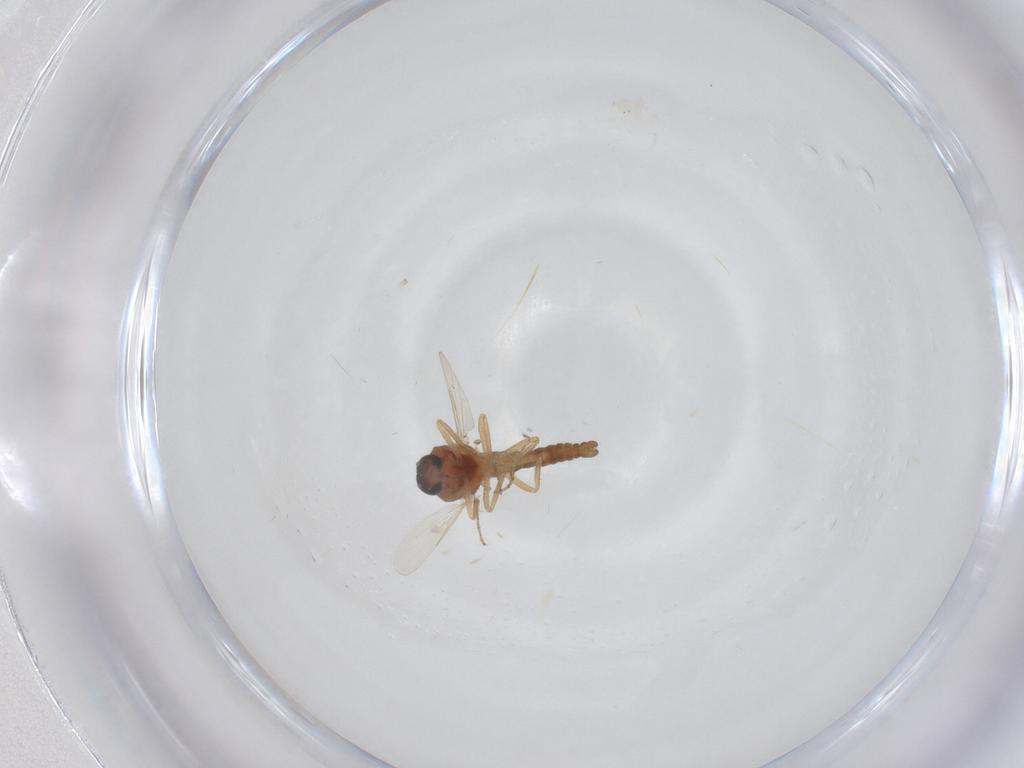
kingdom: Animalia
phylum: Arthropoda
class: Insecta
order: Diptera
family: Ceratopogonidae
